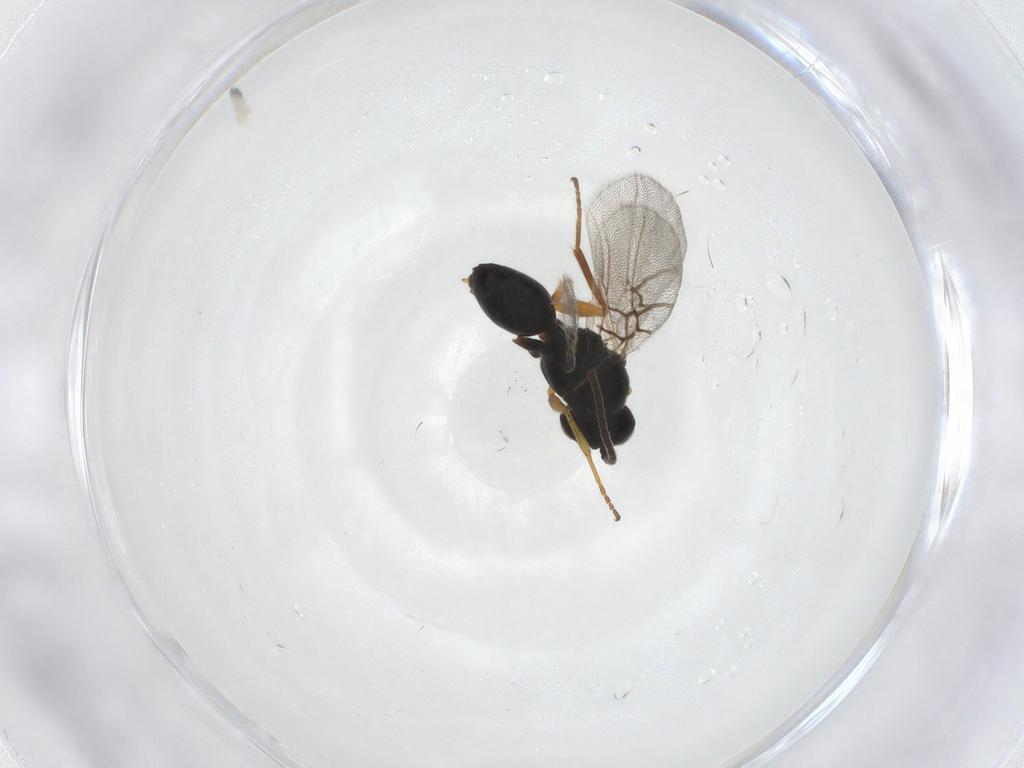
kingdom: Animalia
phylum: Arthropoda
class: Insecta
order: Hymenoptera
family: Cynipidae
